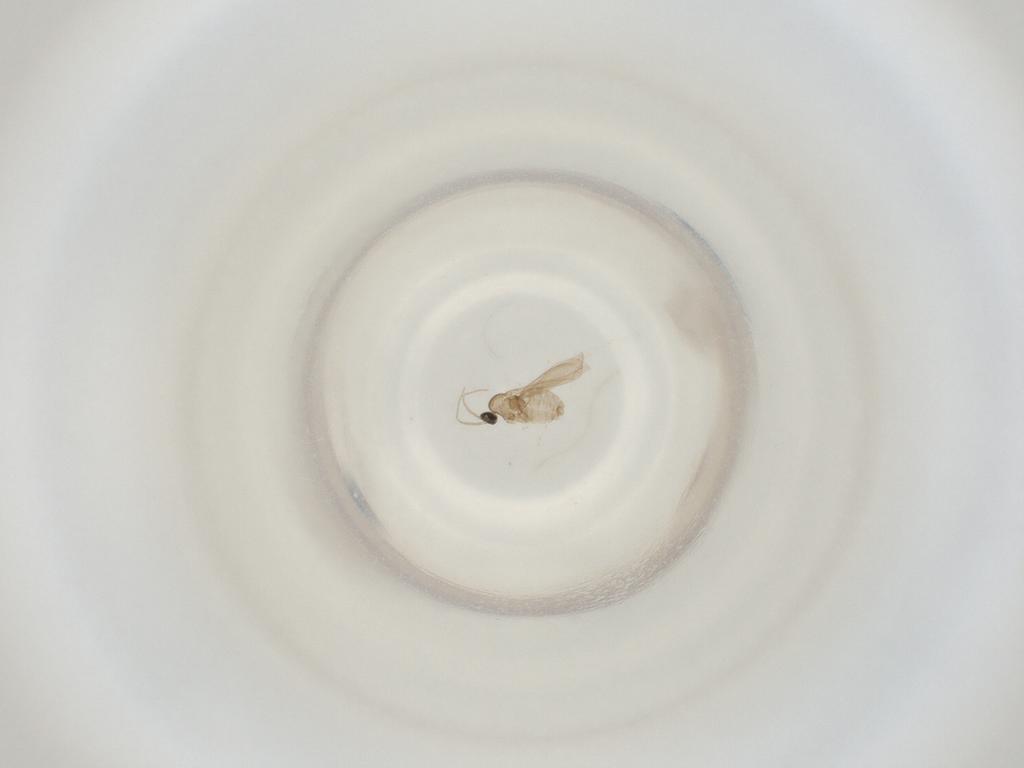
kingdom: Animalia
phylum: Arthropoda
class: Insecta
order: Diptera
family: Cecidomyiidae
